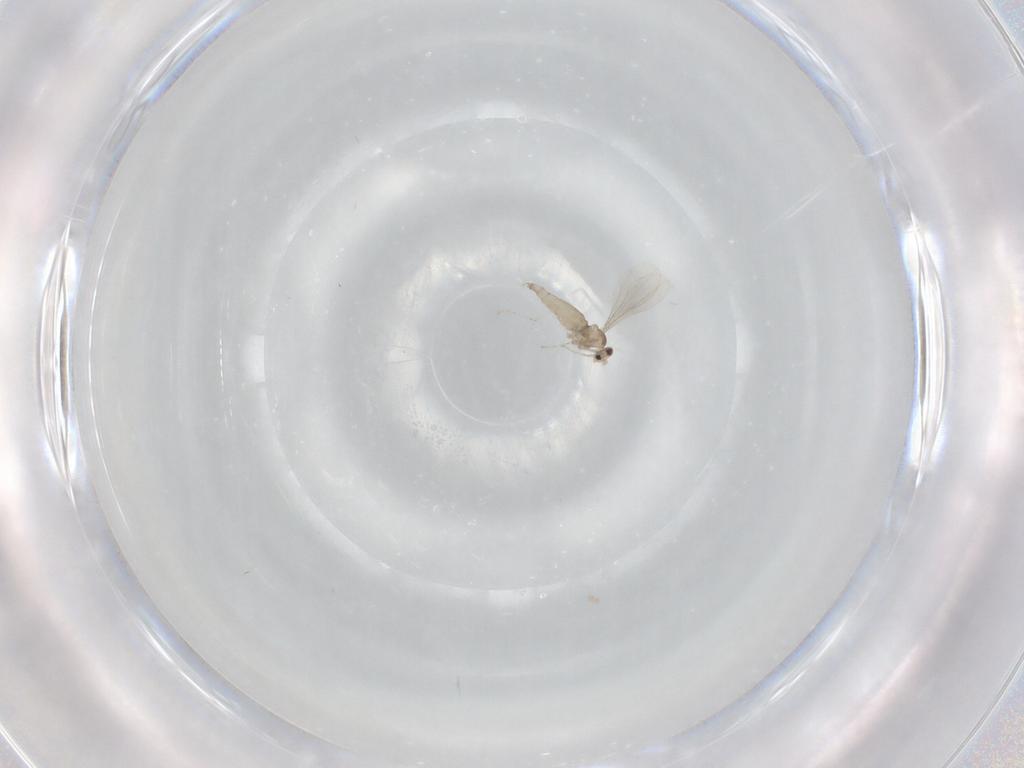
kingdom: Animalia
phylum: Arthropoda
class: Insecta
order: Diptera
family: Cecidomyiidae
